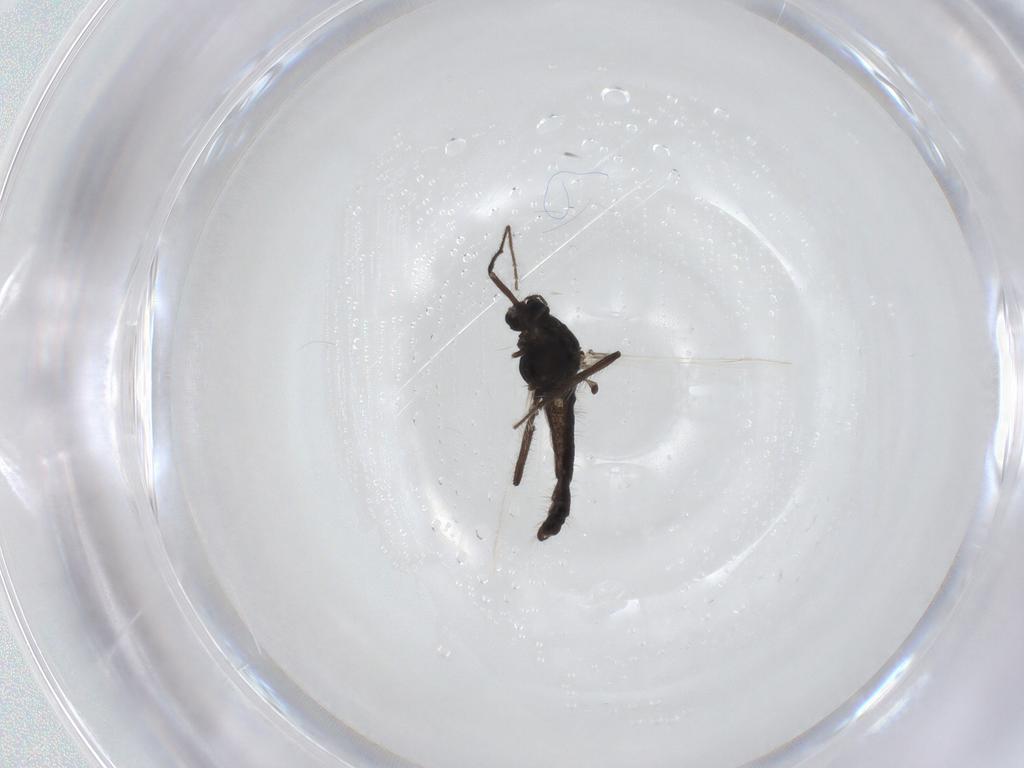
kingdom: Animalia
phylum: Arthropoda
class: Insecta
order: Diptera
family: Chironomidae
